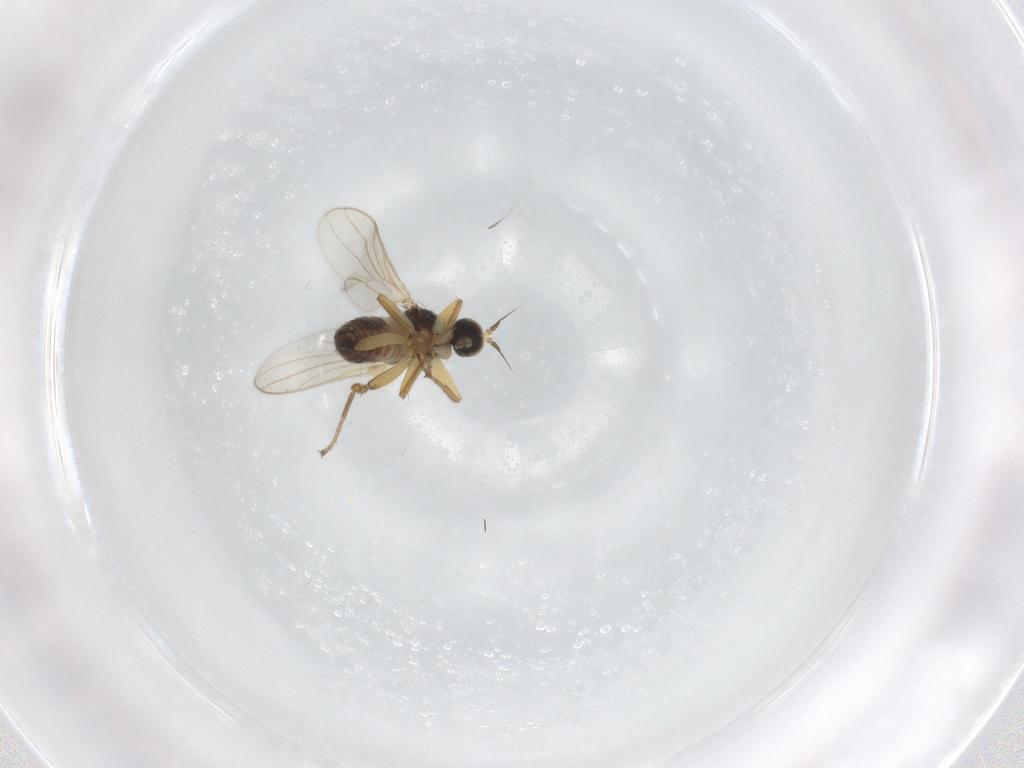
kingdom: Animalia
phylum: Arthropoda
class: Insecta
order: Diptera
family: Hybotidae
